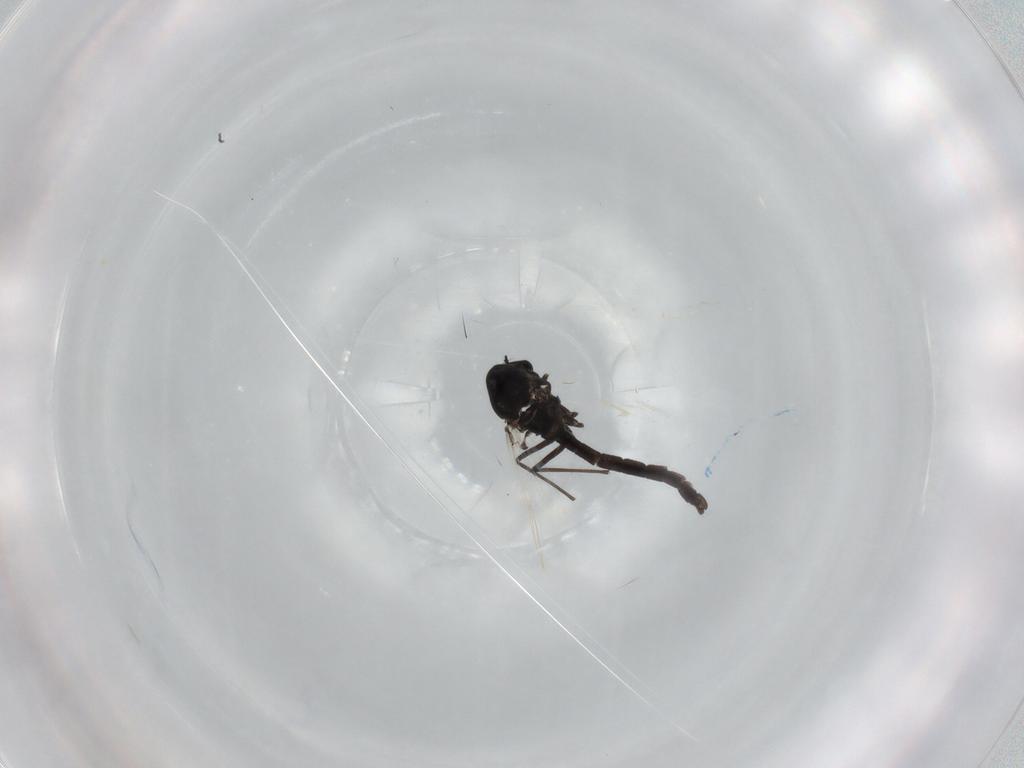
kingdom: Animalia
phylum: Arthropoda
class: Insecta
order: Diptera
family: Chironomidae
